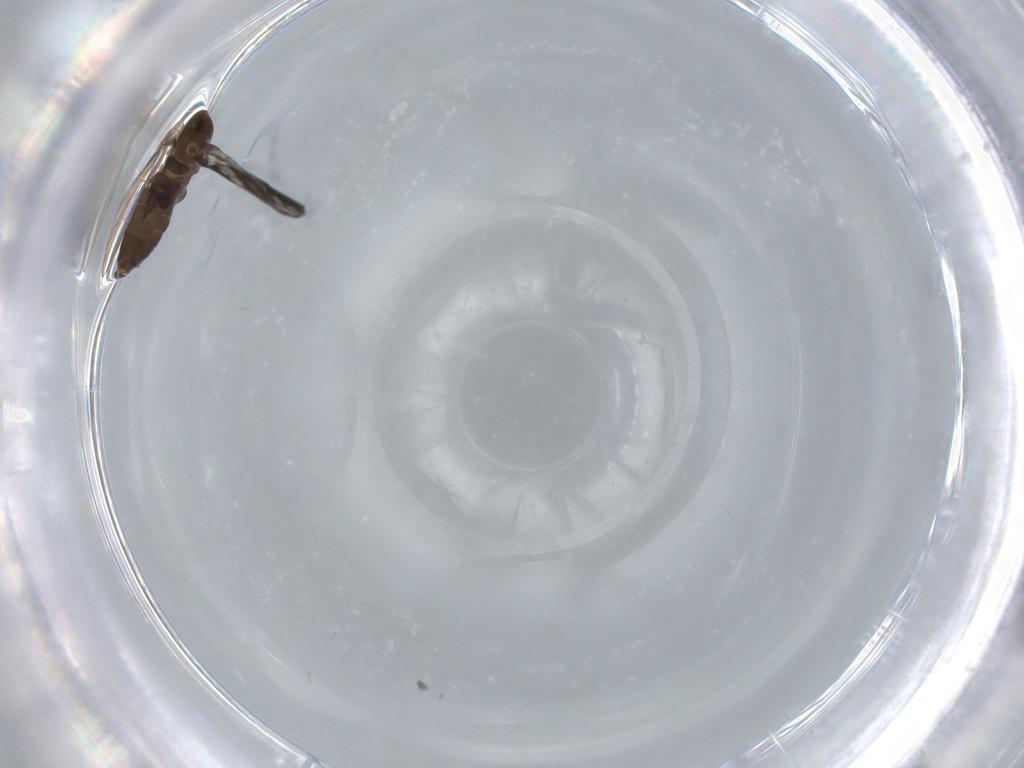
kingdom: Animalia
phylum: Arthropoda
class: Insecta
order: Diptera
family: Psychodidae
